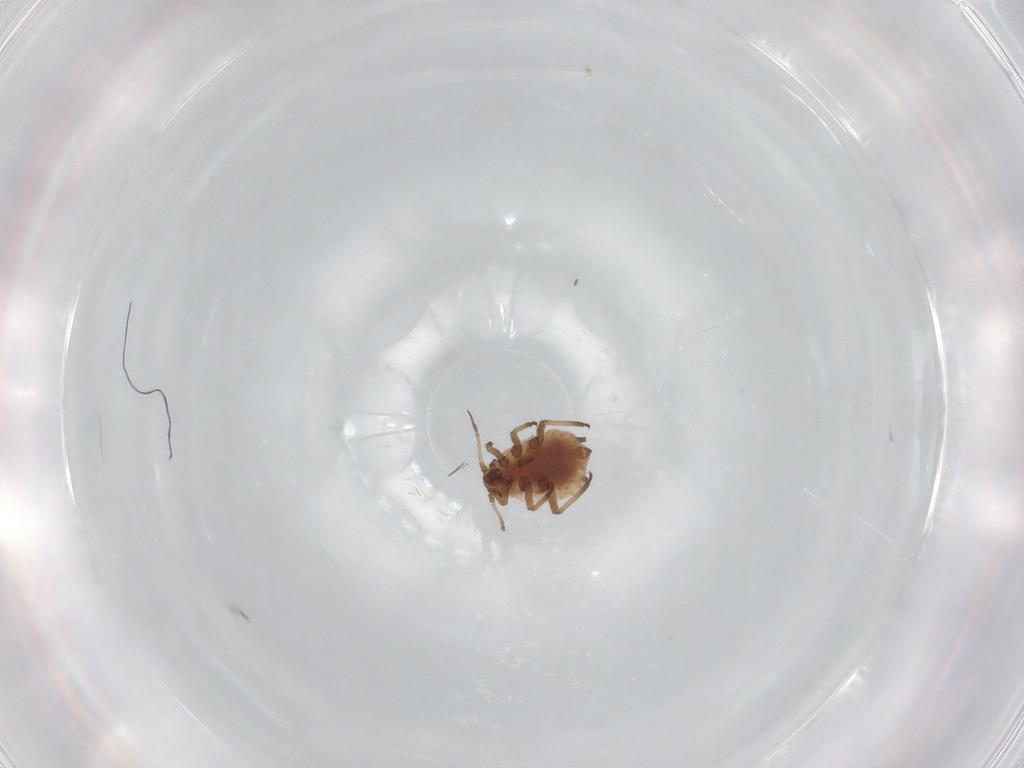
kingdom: Animalia
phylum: Arthropoda
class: Insecta
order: Hemiptera
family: Aphididae
